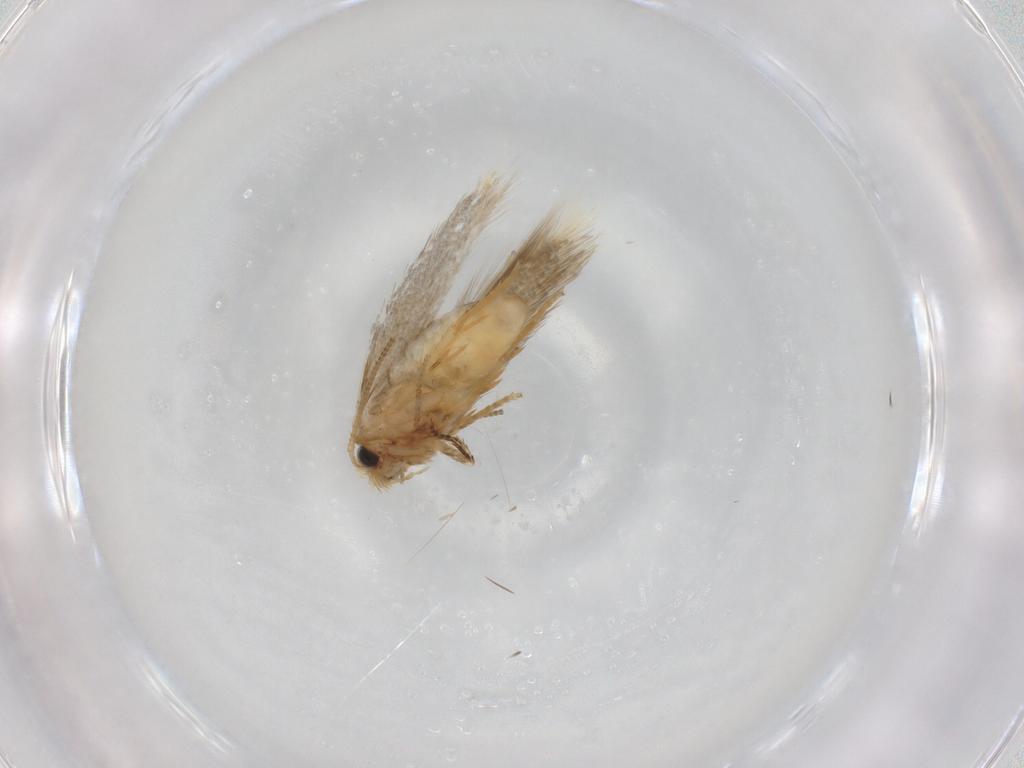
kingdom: Animalia
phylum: Arthropoda
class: Insecta
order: Lepidoptera
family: Nepticulidae
